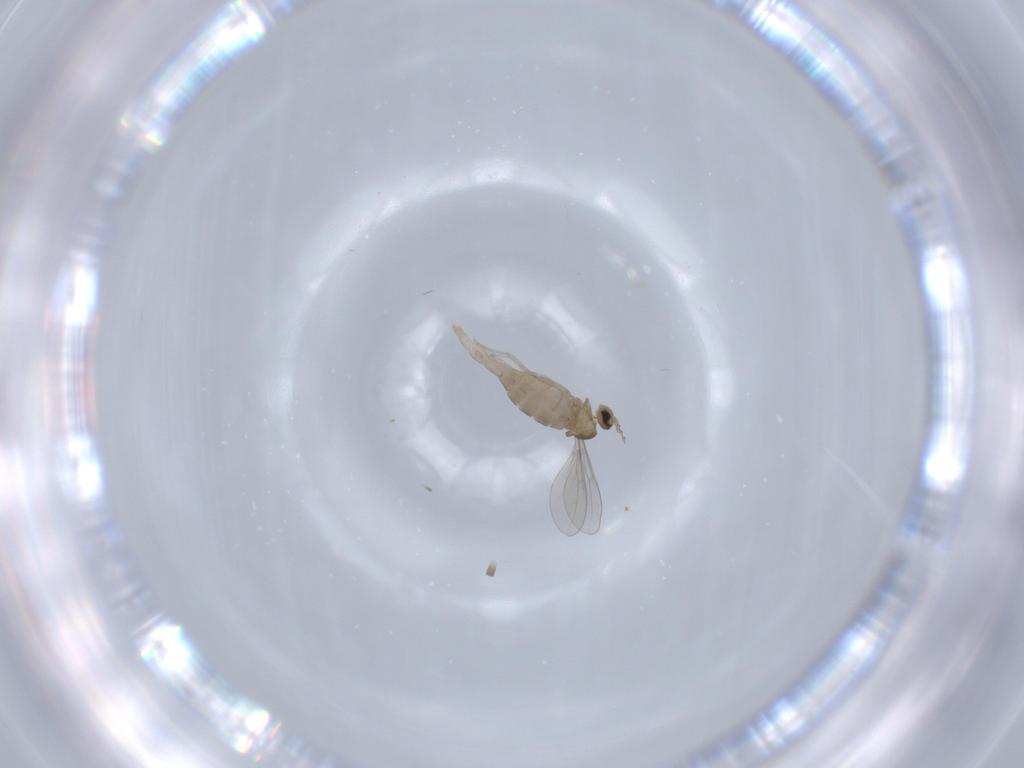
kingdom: Animalia
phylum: Arthropoda
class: Insecta
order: Diptera
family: Cecidomyiidae
